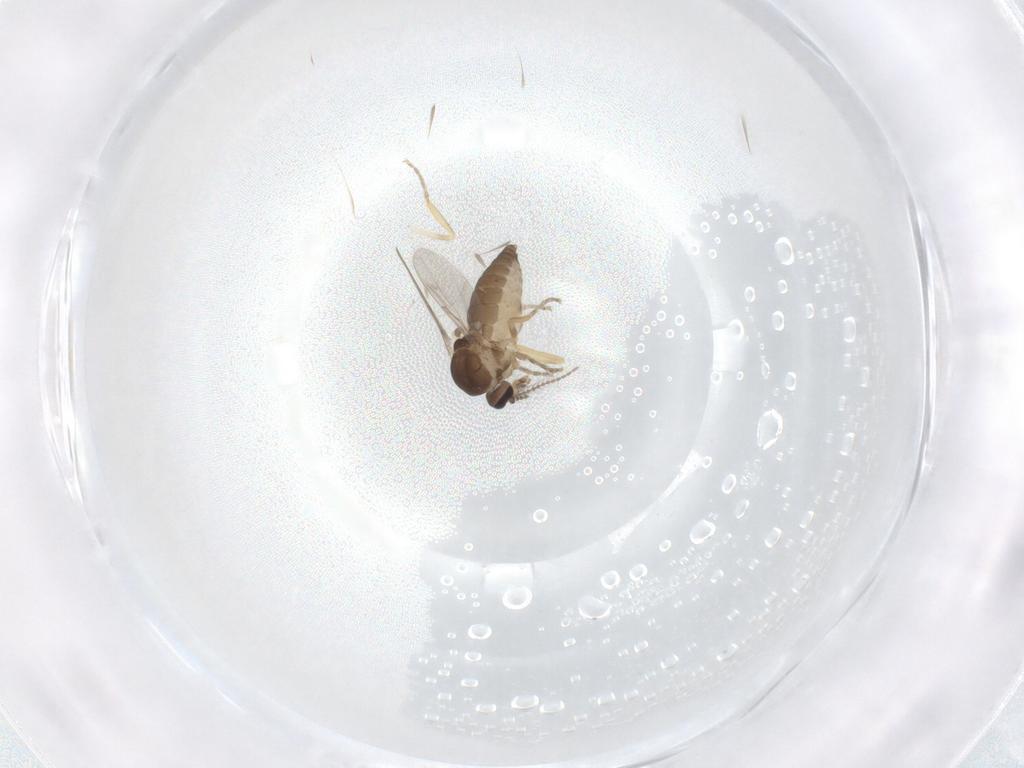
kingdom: Animalia
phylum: Arthropoda
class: Insecta
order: Diptera
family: Ceratopogonidae
